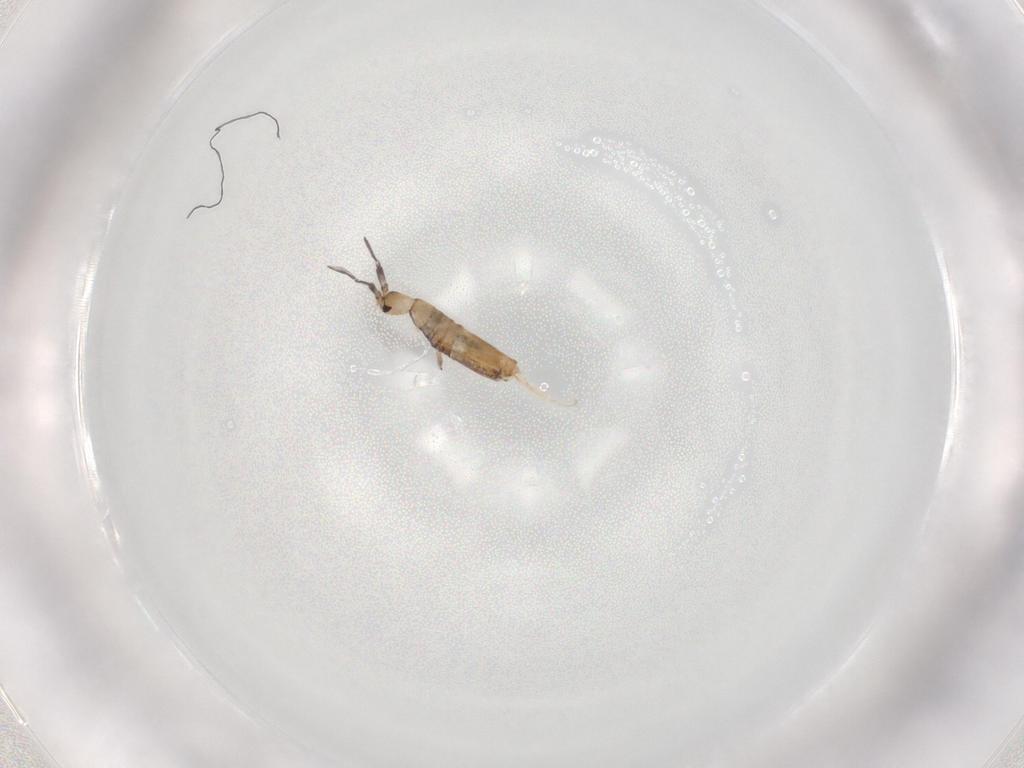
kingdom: Animalia
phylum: Arthropoda
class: Collembola
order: Poduromorpha
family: Hypogastruridae
